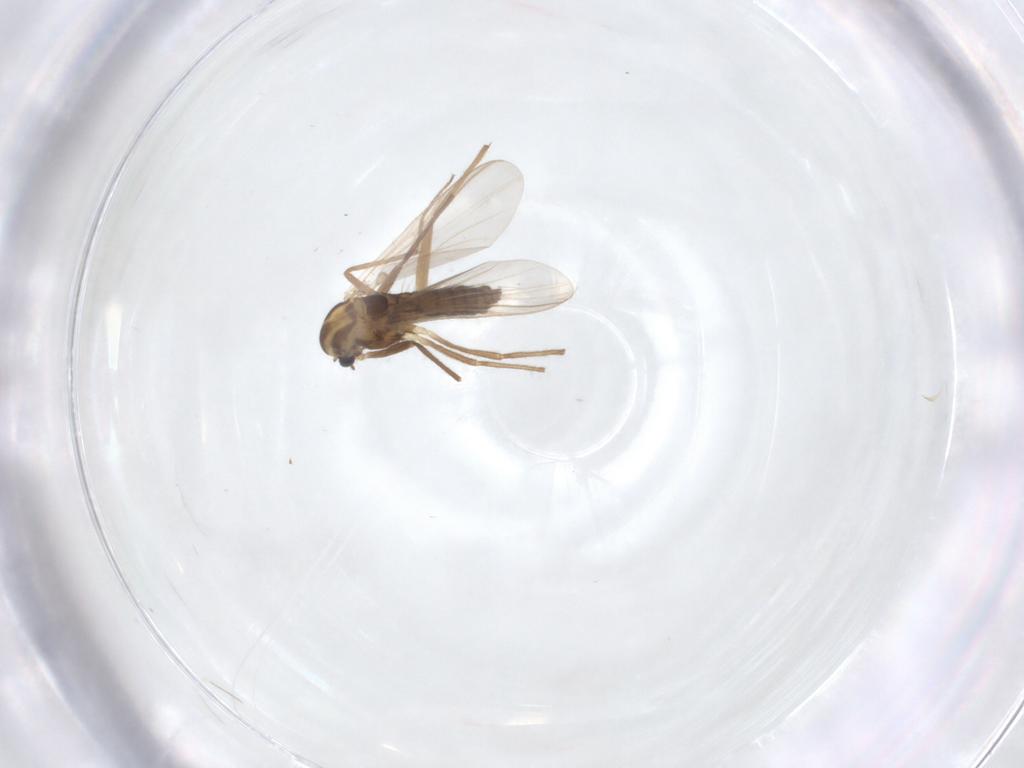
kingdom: Animalia
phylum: Arthropoda
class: Insecta
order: Diptera
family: Chironomidae
